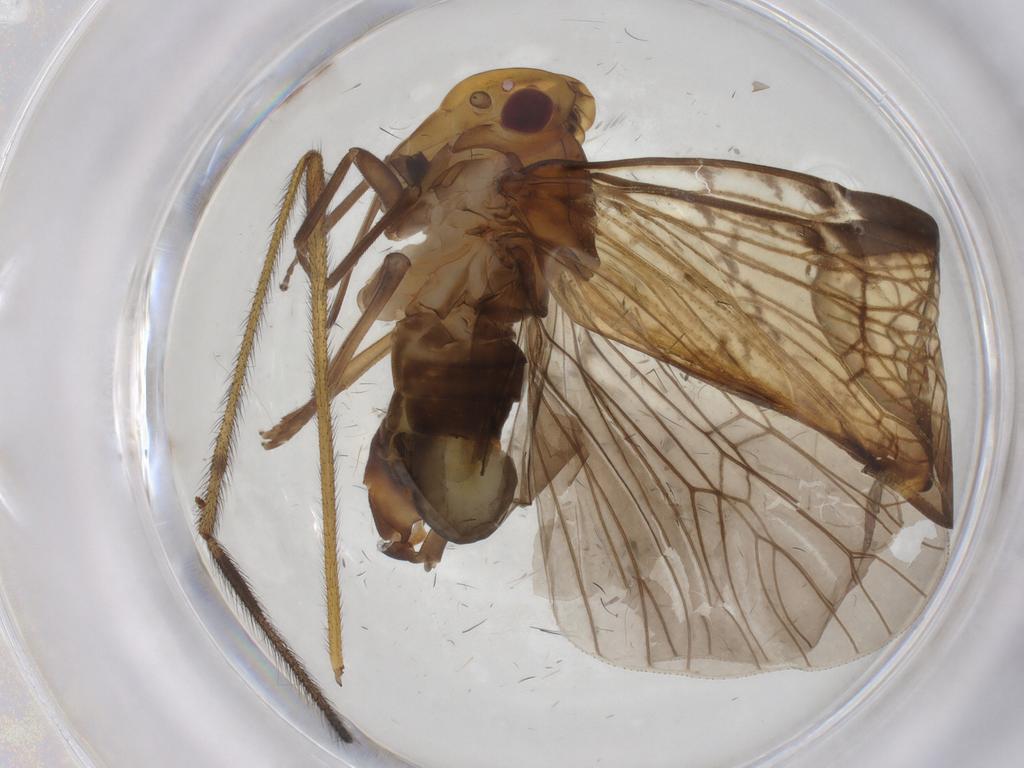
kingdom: Animalia
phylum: Arthropoda
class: Insecta
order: Hemiptera
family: Cixiidae
